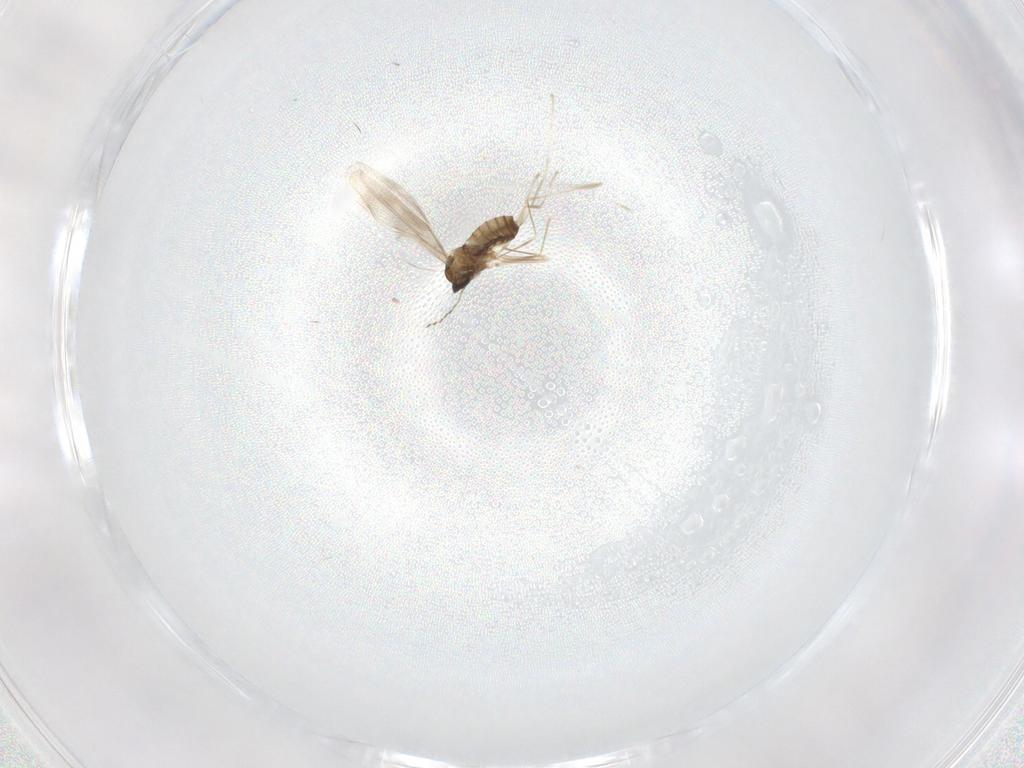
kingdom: Animalia
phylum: Arthropoda
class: Insecta
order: Diptera
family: Cecidomyiidae
